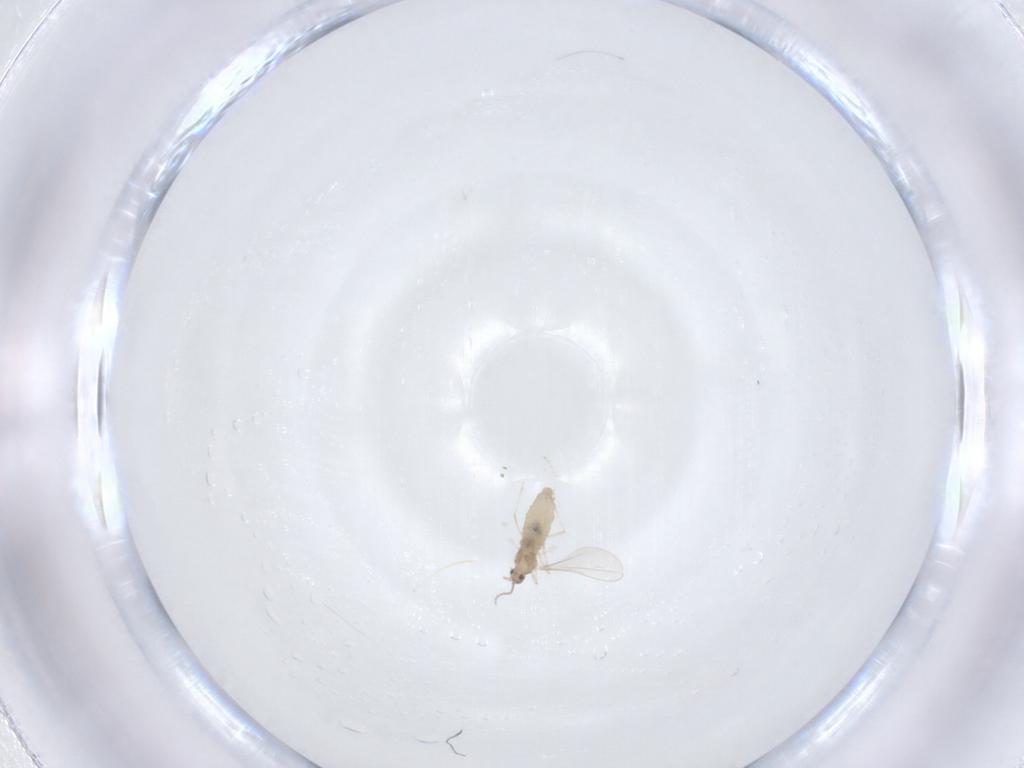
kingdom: Animalia
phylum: Arthropoda
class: Insecta
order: Diptera
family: Cecidomyiidae
